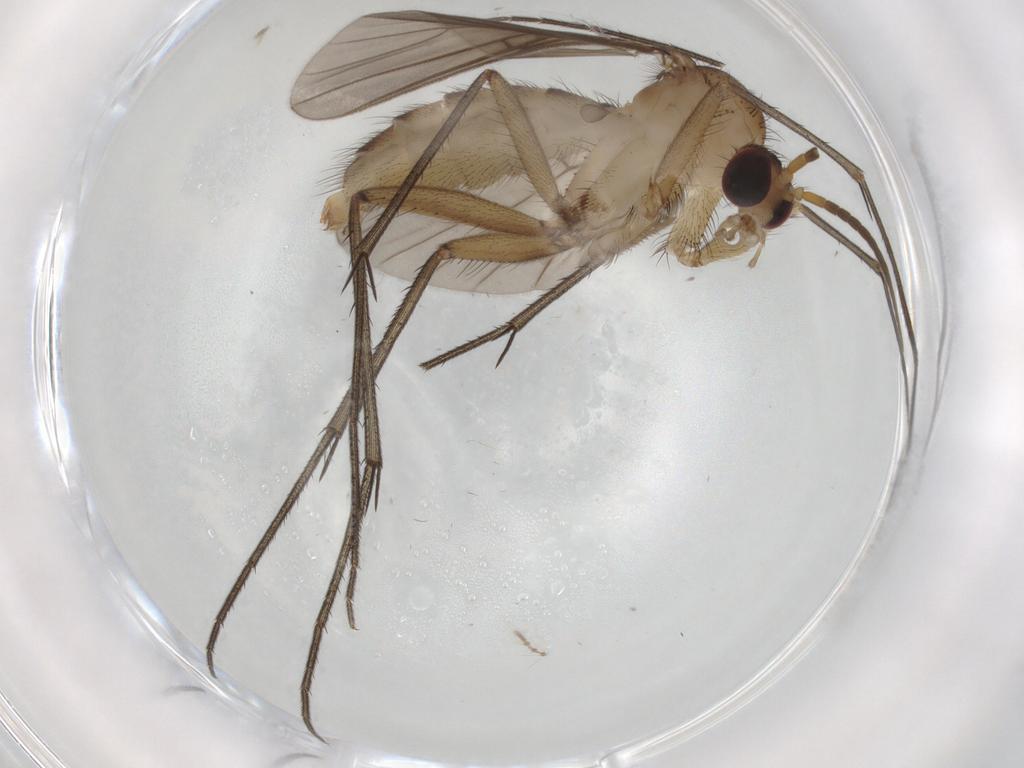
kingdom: Animalia
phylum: Arthropoda
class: Insecta
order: Diptera
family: Mycetophilidae
